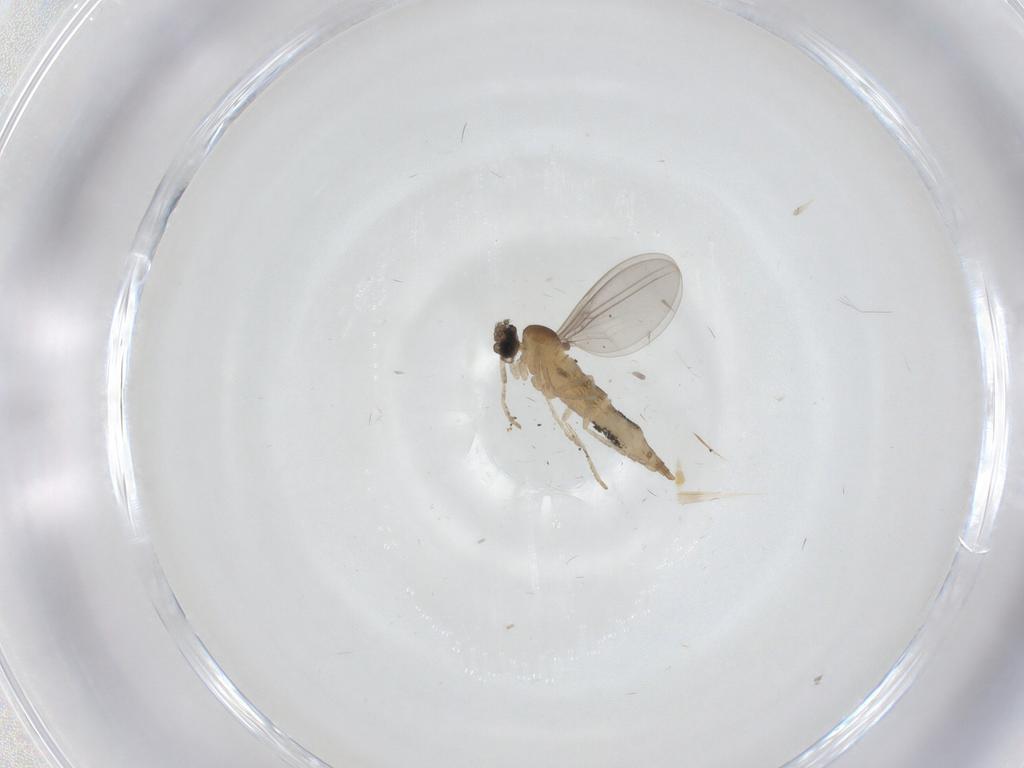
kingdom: Animalia
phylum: Arthropoda
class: Insecta
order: Diptera
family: Cecidomyiidae
